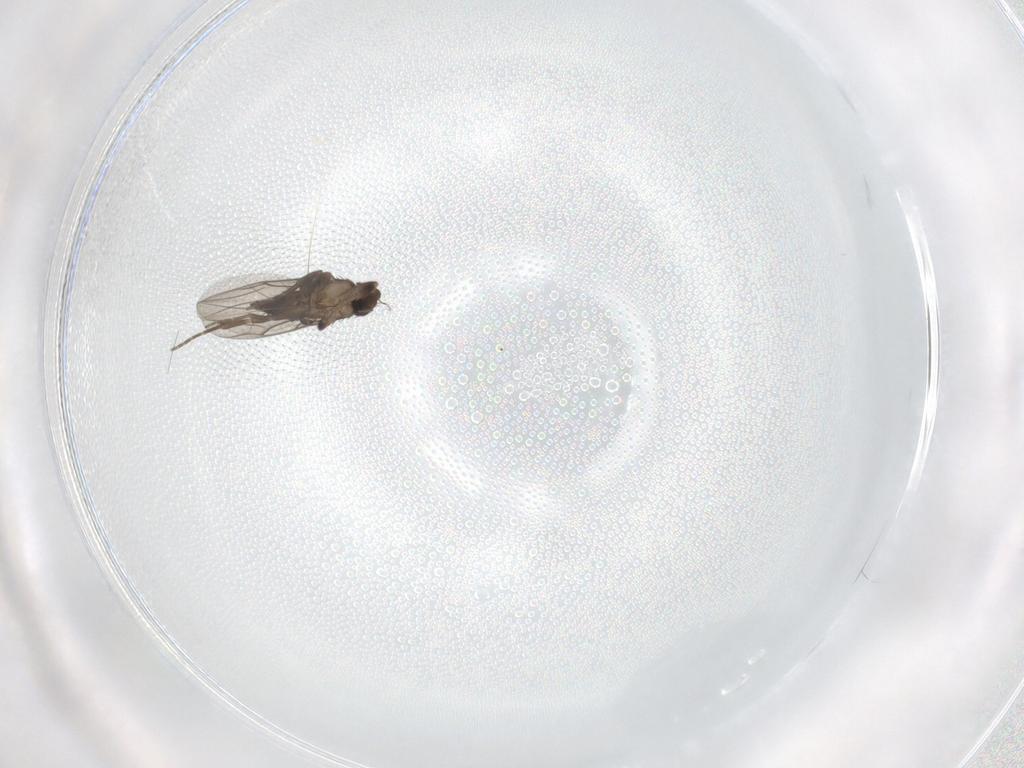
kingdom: Animalia
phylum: Arthropoda
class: Insecta
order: Diptera
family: Phoridae
